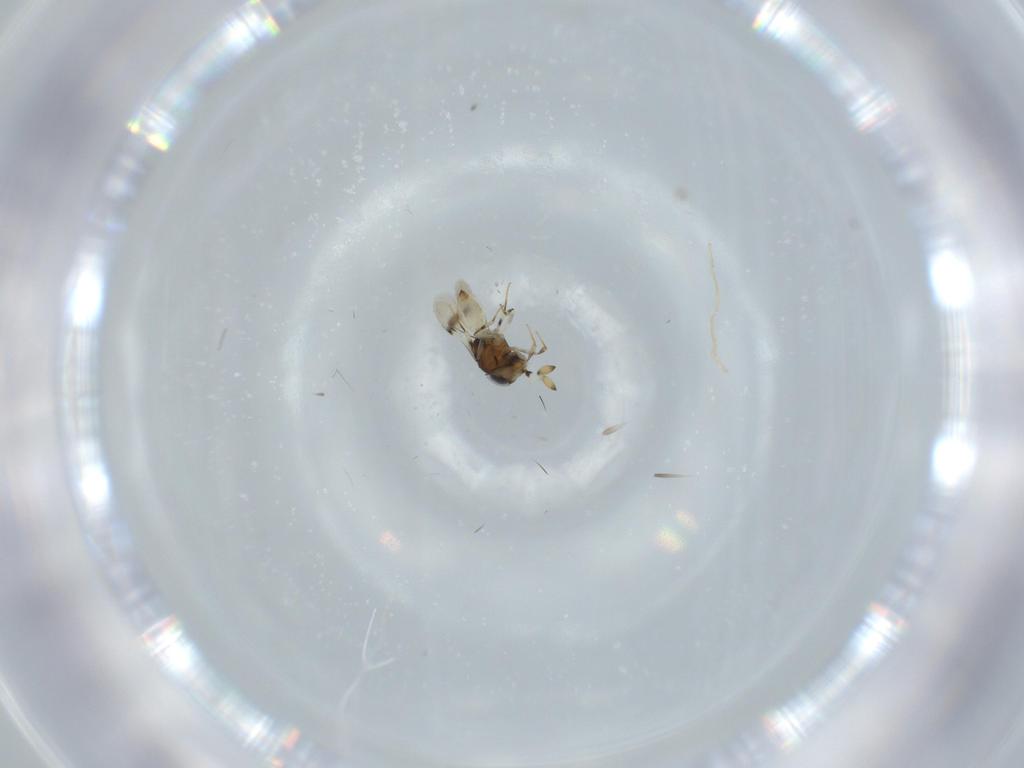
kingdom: Animalia
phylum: Arthropoda
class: Insecta
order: Hymenoptera
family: Scelionidae
